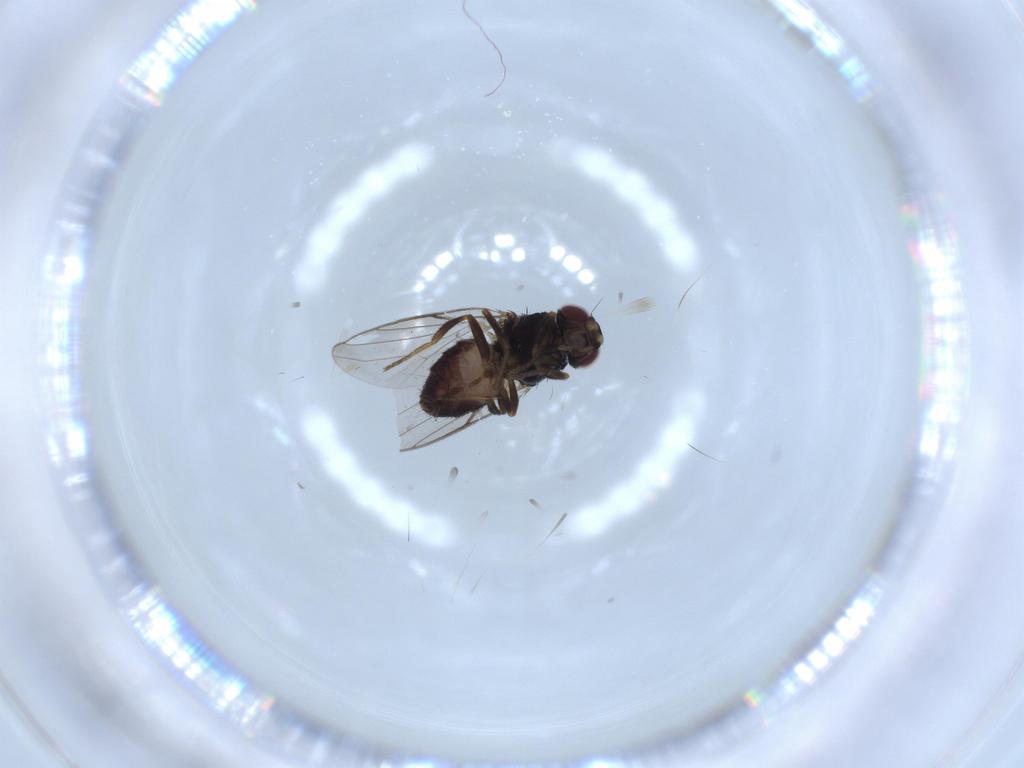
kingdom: Animalia
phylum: Arthropoda
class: Insecta
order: Diptera
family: Chloropidae
